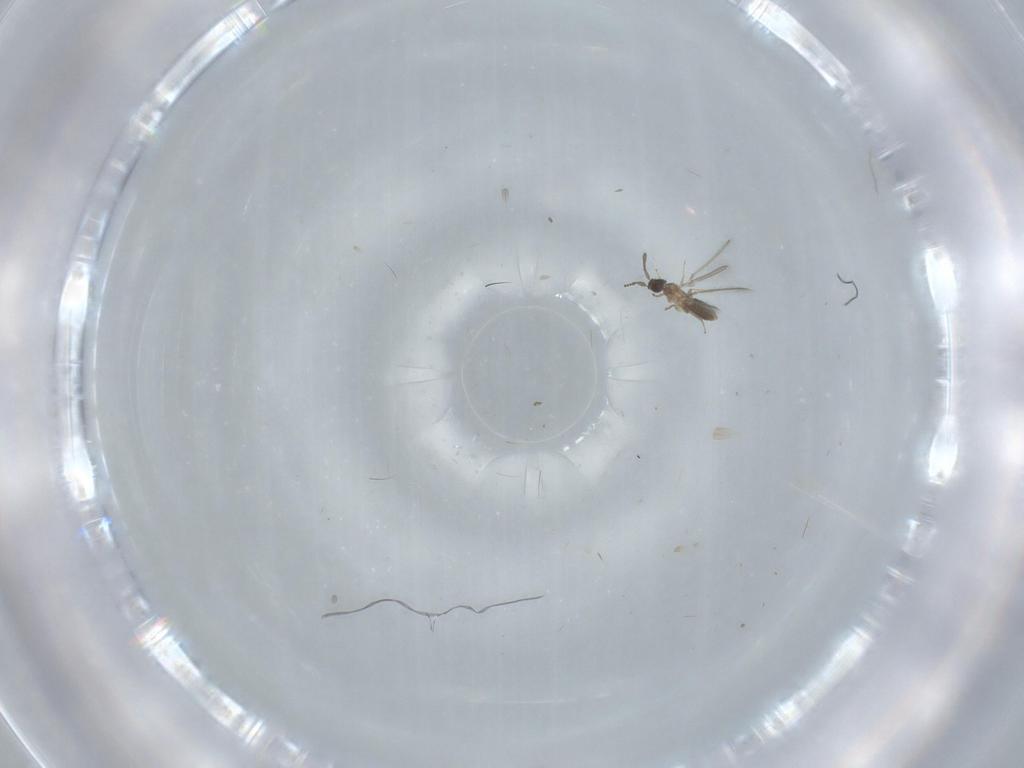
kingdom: Animalia
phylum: Arthropoda
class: Insecta
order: Hymenoptera
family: Mymaridae
